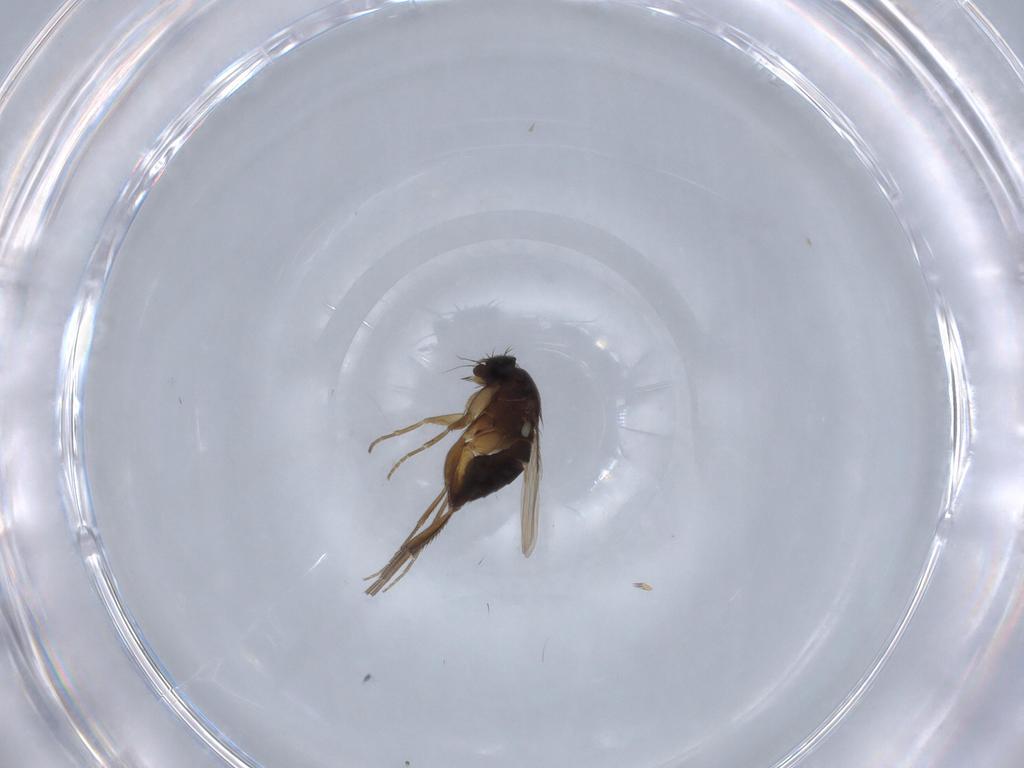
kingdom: Animalia
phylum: Arthropoda
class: Insecta
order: Diptera
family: Phoridae
